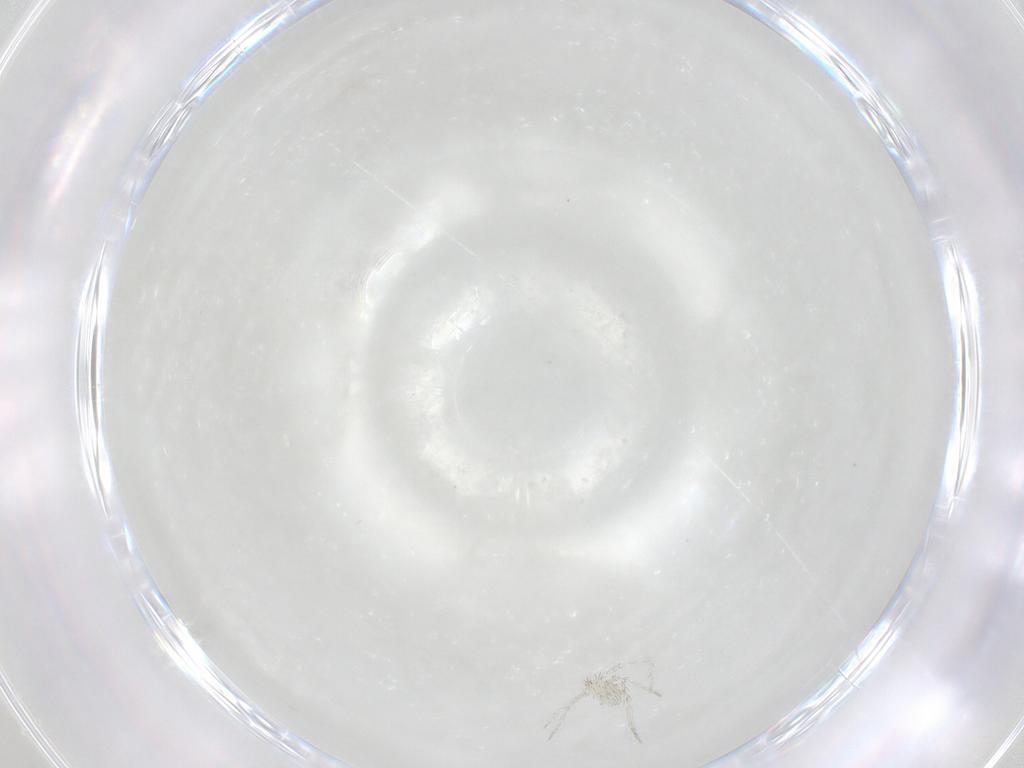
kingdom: Animalia
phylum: Arthropoda
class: Arachnida
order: Trombidiformes
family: Smarididae
